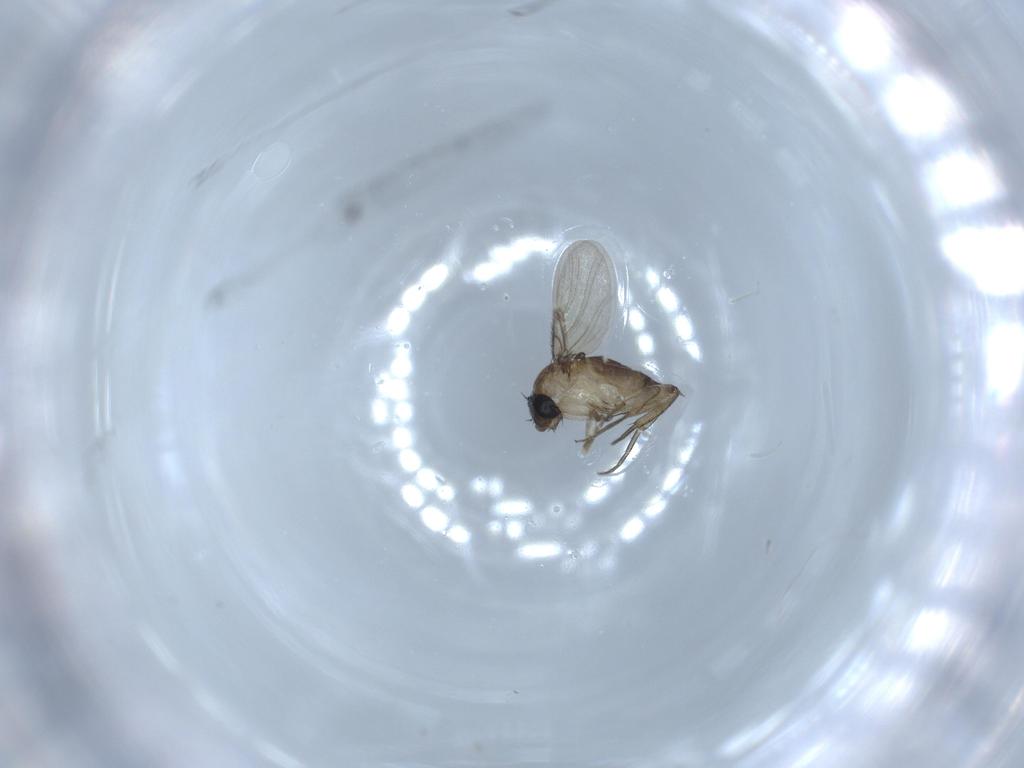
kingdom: Animalia
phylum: Arthropoda
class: Insecta
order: Diptera
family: Phoridae
